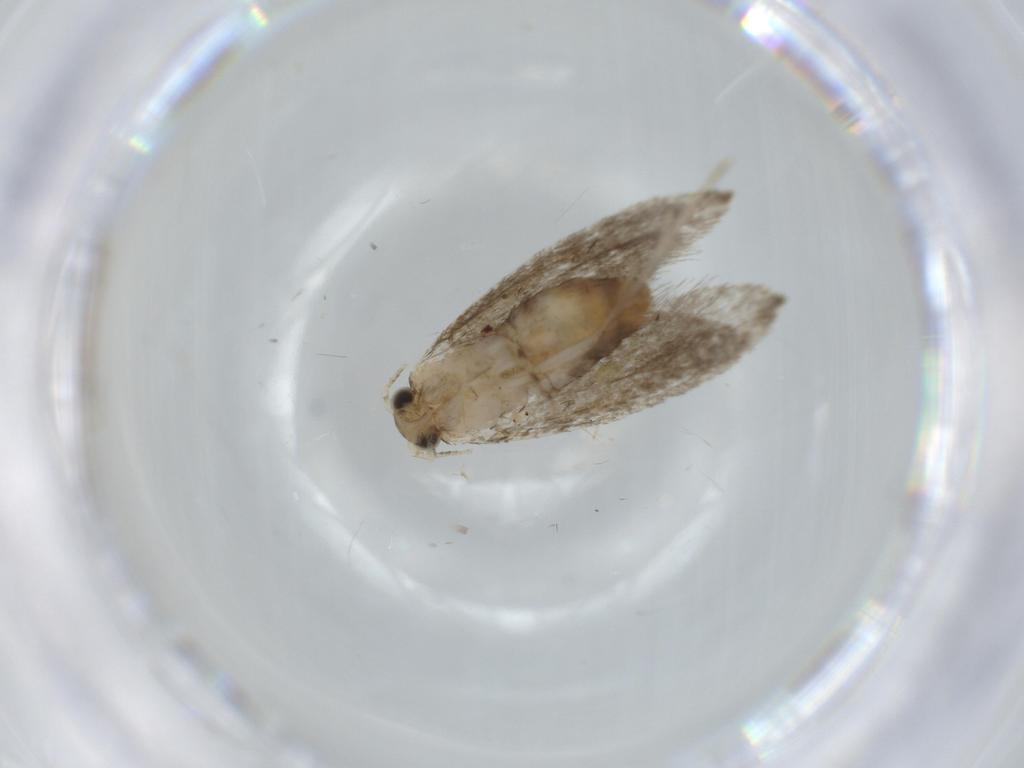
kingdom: Animalia
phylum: Arthropoda
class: Insecta
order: Lepidoptera
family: Tineidae
